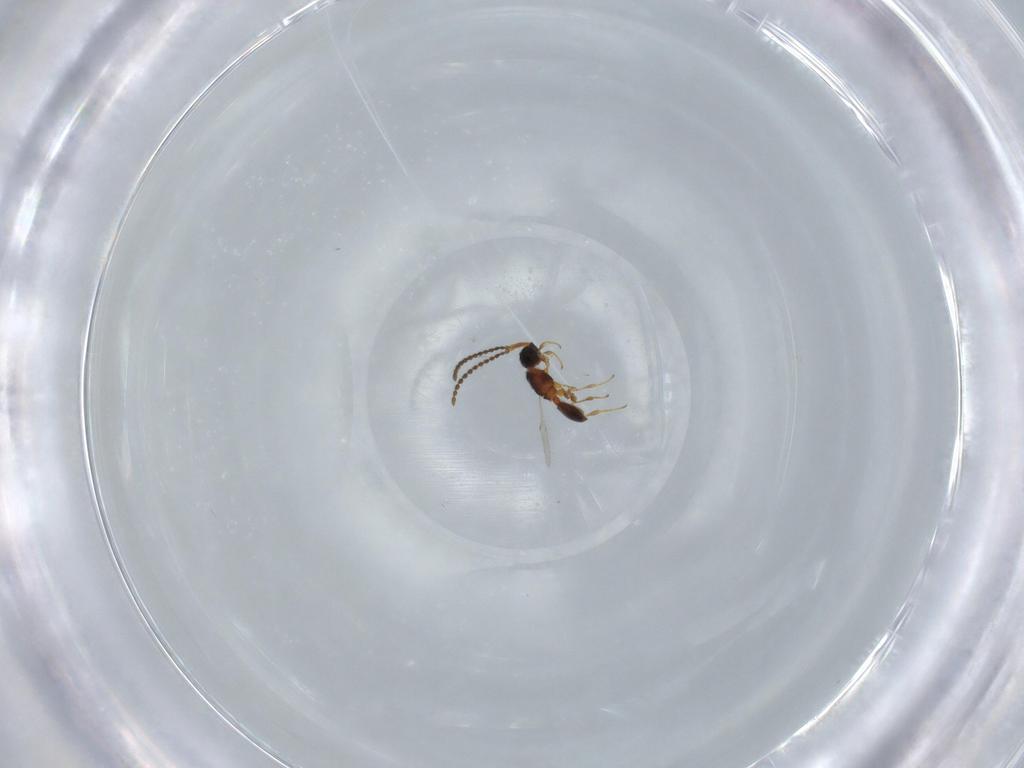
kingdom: Animalia
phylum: Arthropoda
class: Insecta
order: Hymenoptera
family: Diapriidae
